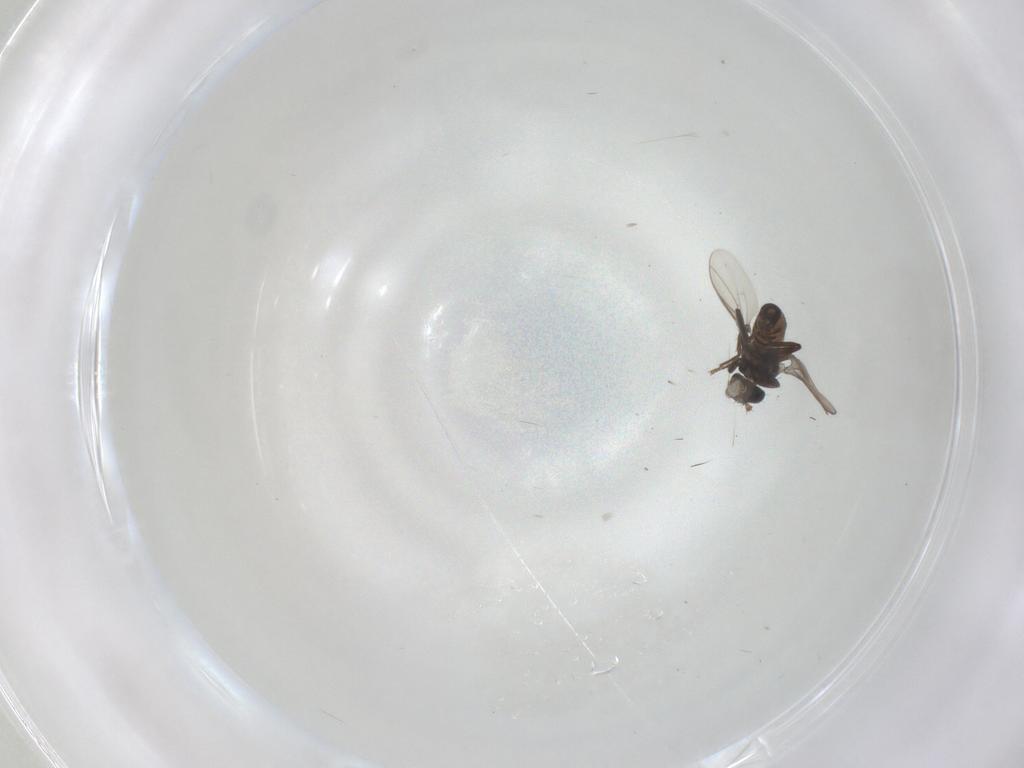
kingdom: Animalia
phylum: Arthropoda
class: Insecta
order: Diptera
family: Sphaeroceridae
